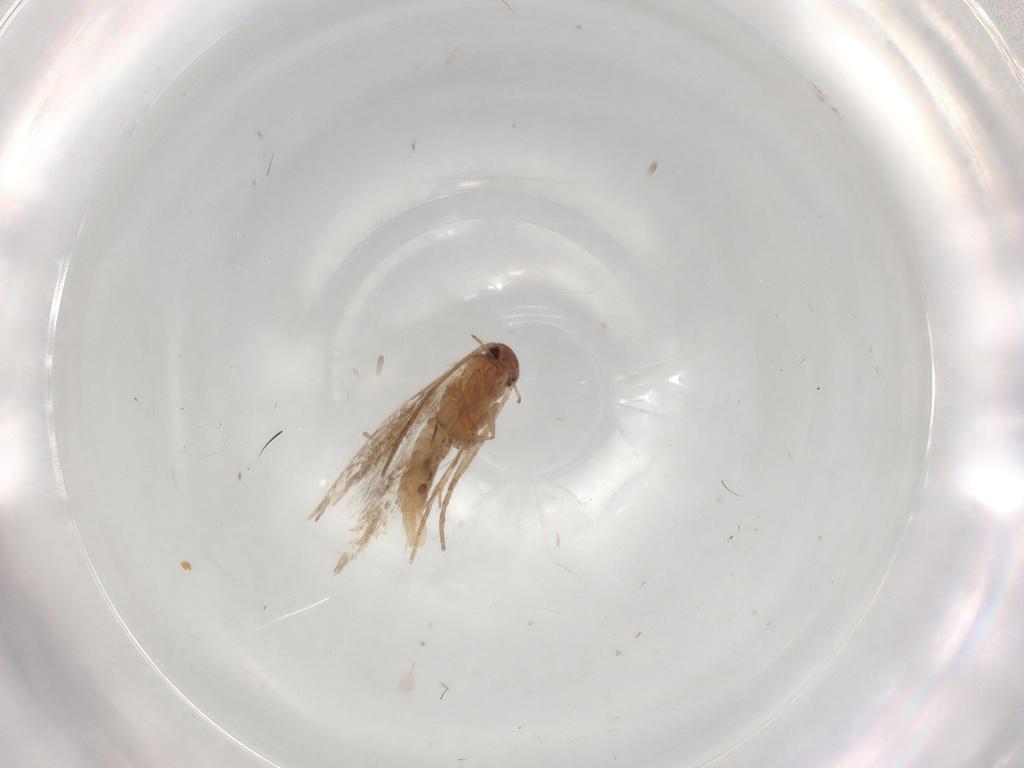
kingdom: Animalia
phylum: Arthropoda
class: Insecta
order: Lepidoptera
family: Elachistidae
